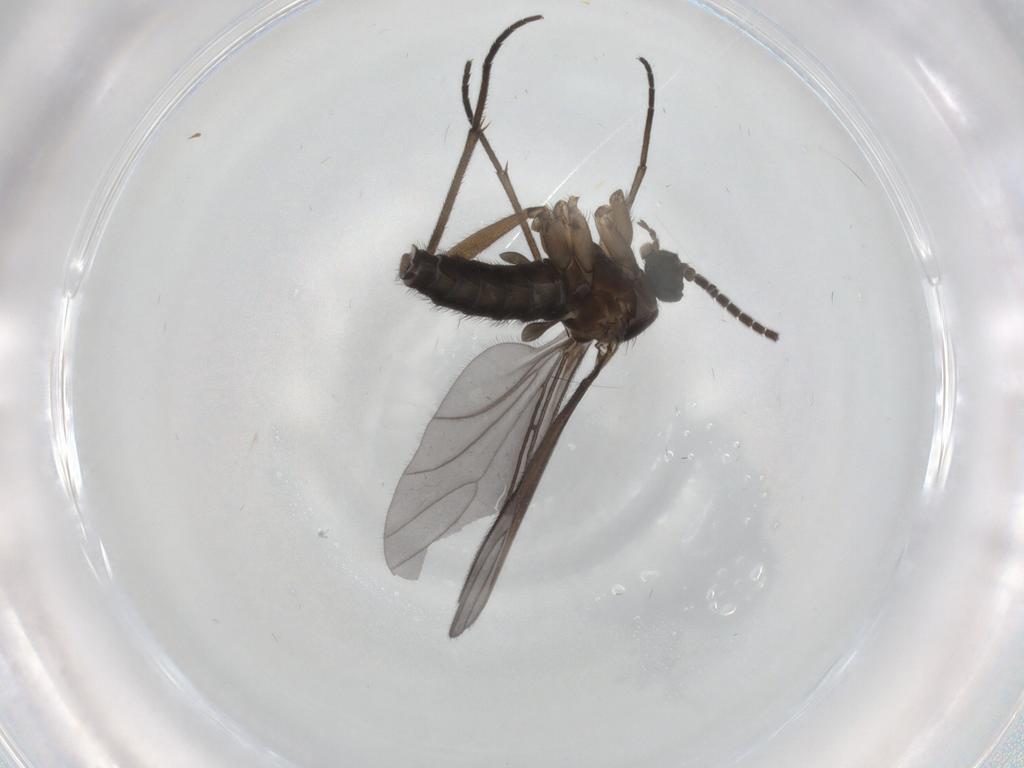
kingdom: Animalia
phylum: Arthropoda
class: Insecta
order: Diptera
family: Sciaridae
